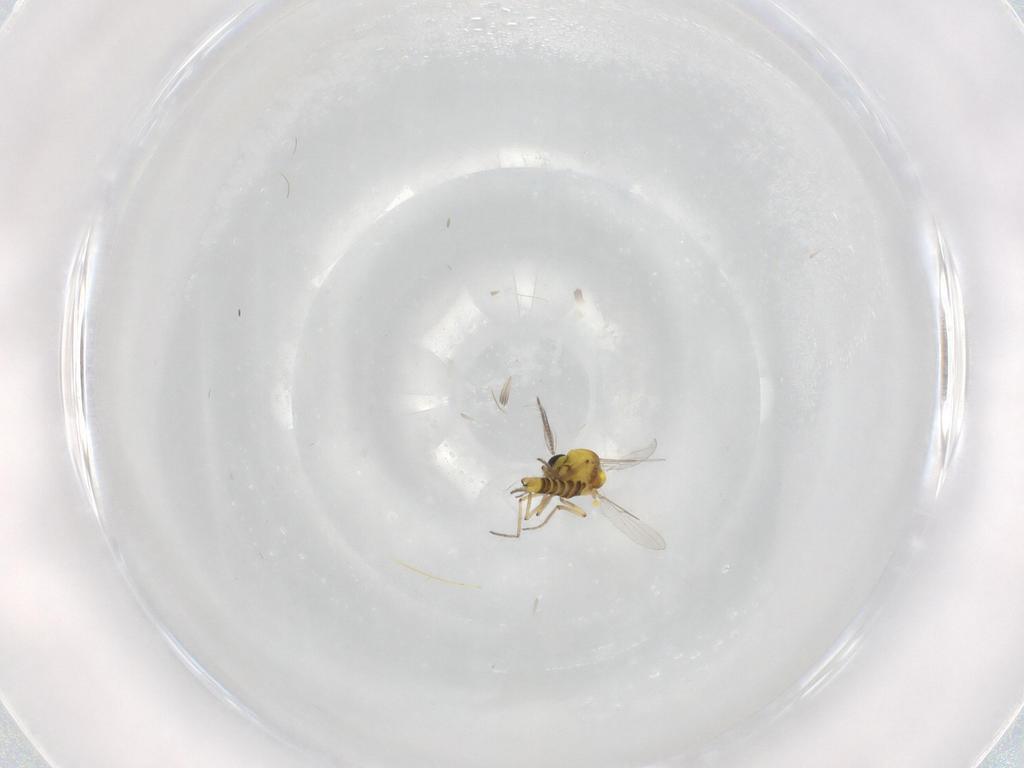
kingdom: Animalia
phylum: Arthropoda
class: Insecta
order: Diptera
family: Ceratopogonidae
